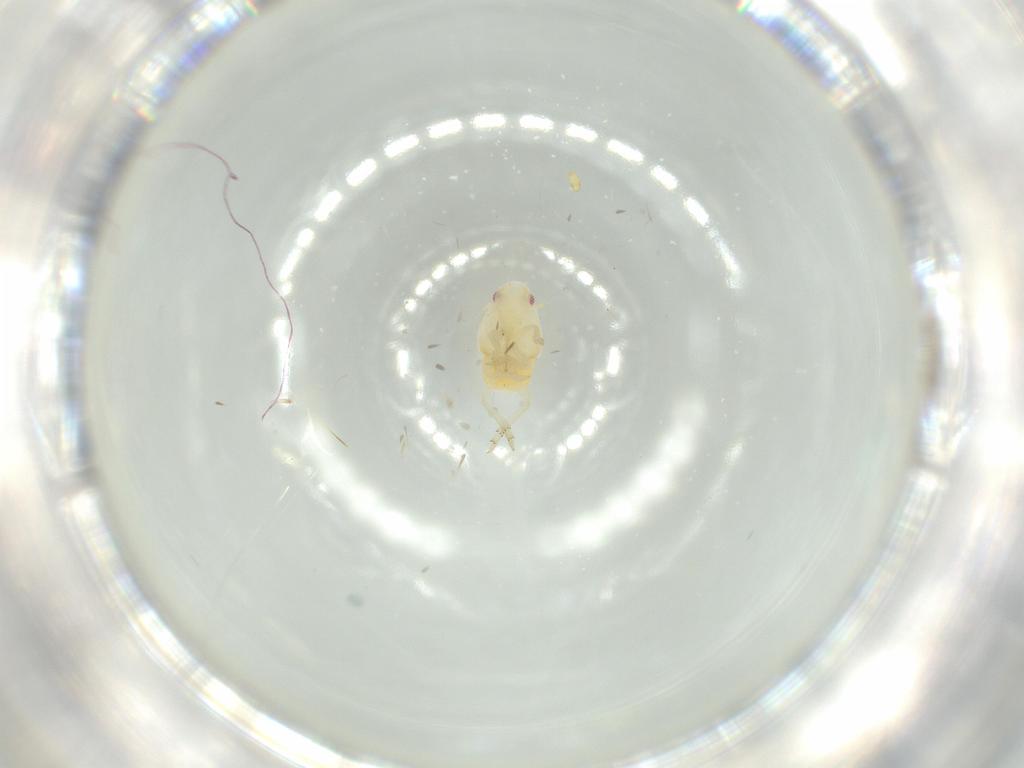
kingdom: Animalia
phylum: Arthropoda
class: Insecta
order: Hemiptera
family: Flatidae
